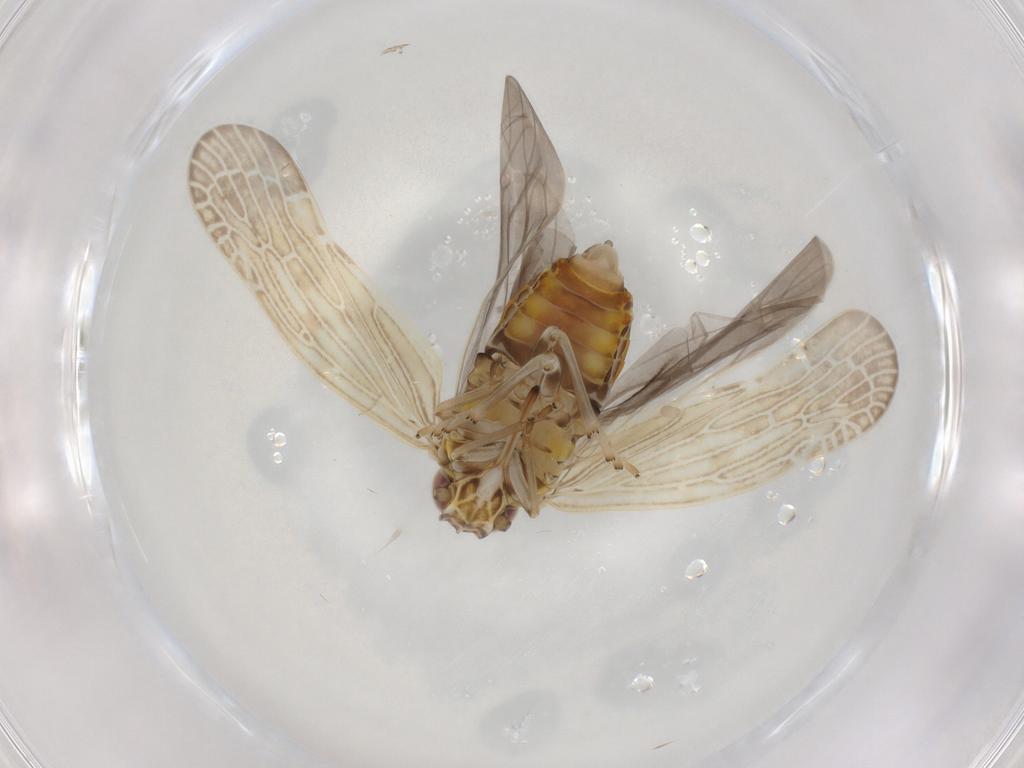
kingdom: Animalia
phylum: Arthropoda
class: Insecta
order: Hemiptera
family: Achilidae
